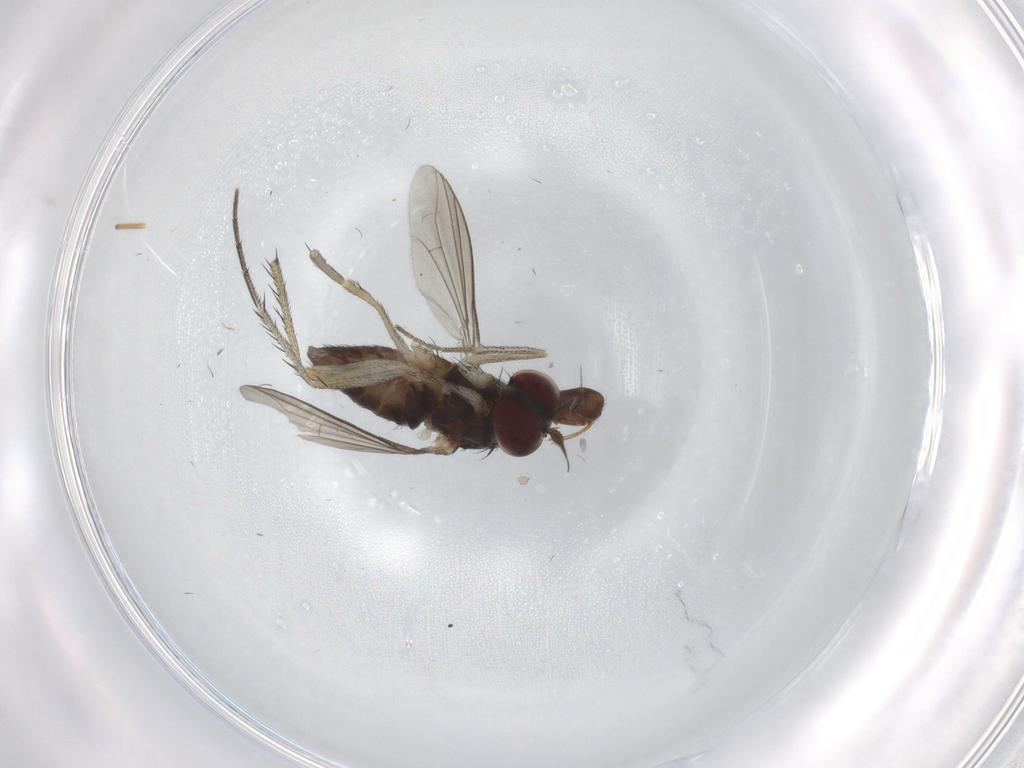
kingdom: Animalia
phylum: Arthropoda
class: Insecta
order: Diptera
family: Dolichopodidae
